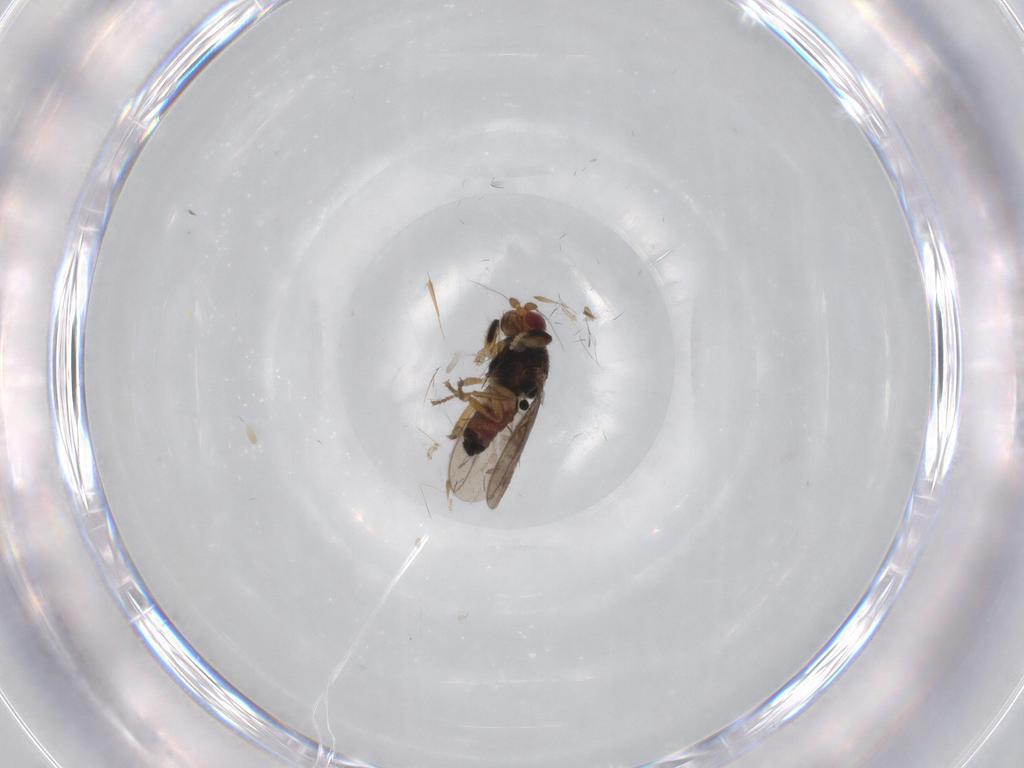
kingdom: Animalia
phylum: Arthropoda
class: Insecta
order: Diptera
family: Sphaeroceridae
